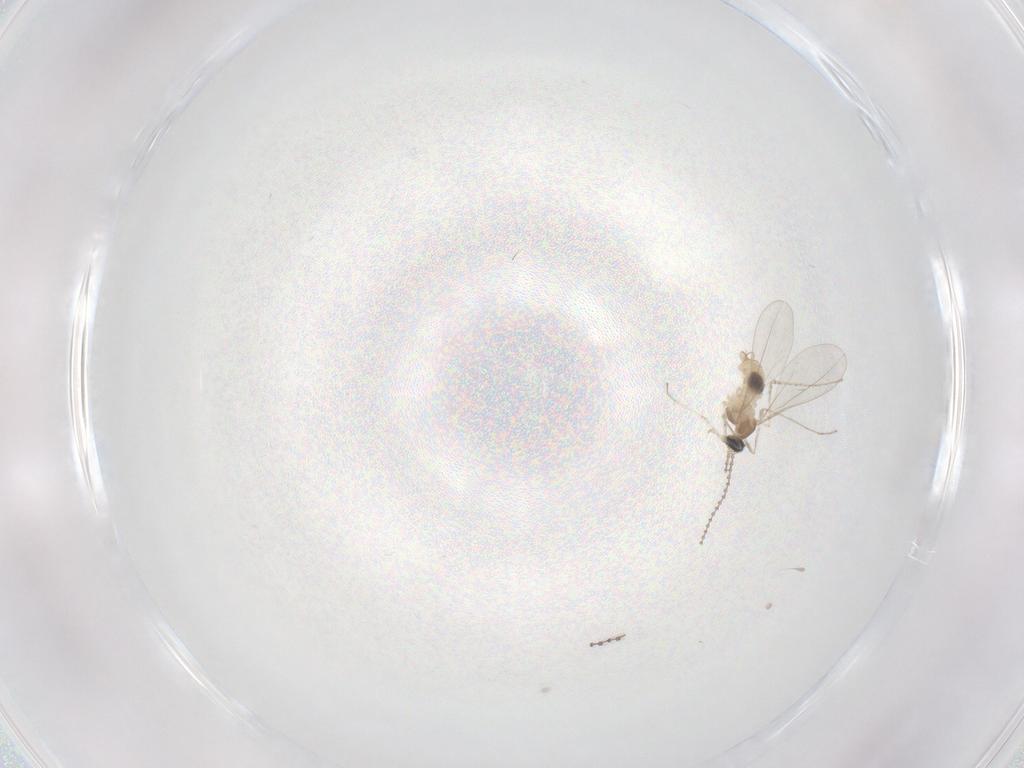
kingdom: Animalia
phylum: Arthropoda
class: Insecta
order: Diptera
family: Cecidomyiidae
